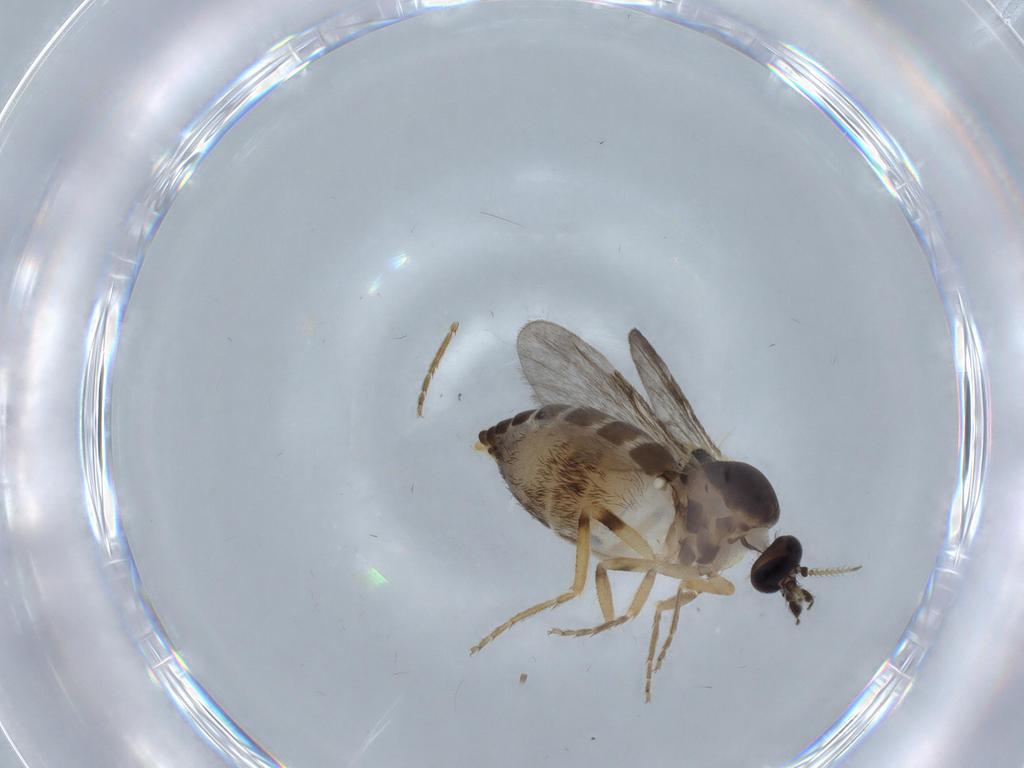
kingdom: Animalia
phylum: Arthropoda
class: Insecta
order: Diptera
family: Ceratopogonidae
